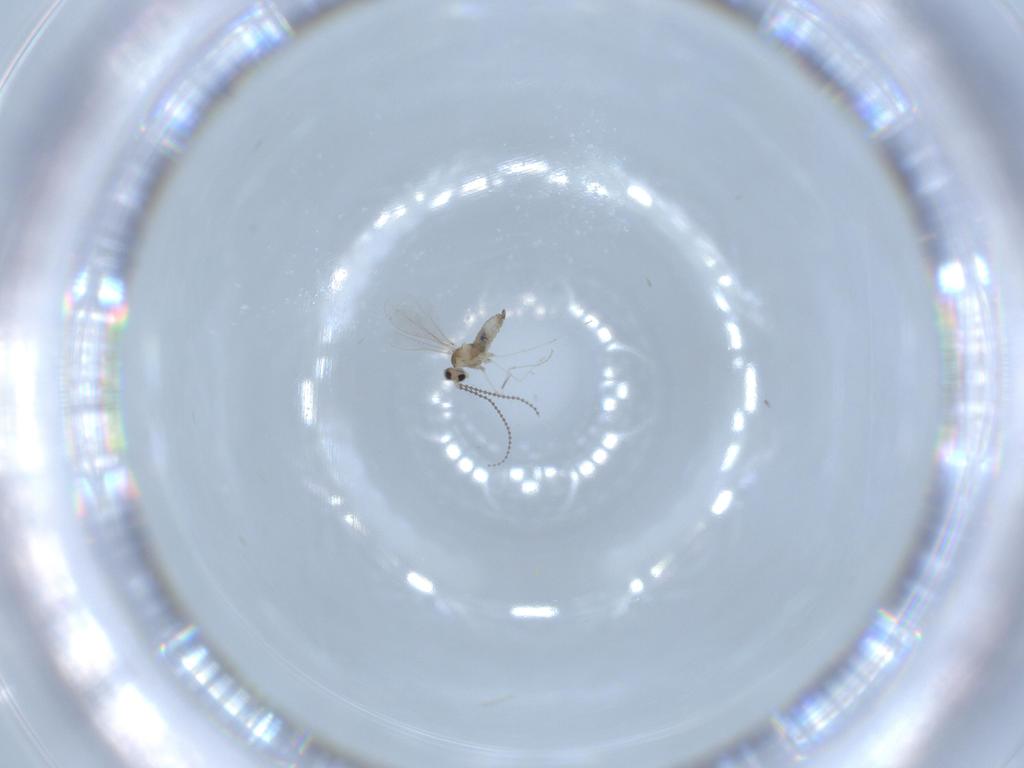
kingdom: Animalia
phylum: Arthropoda
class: Insecta
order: Diptera
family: Cecidomyiidae
